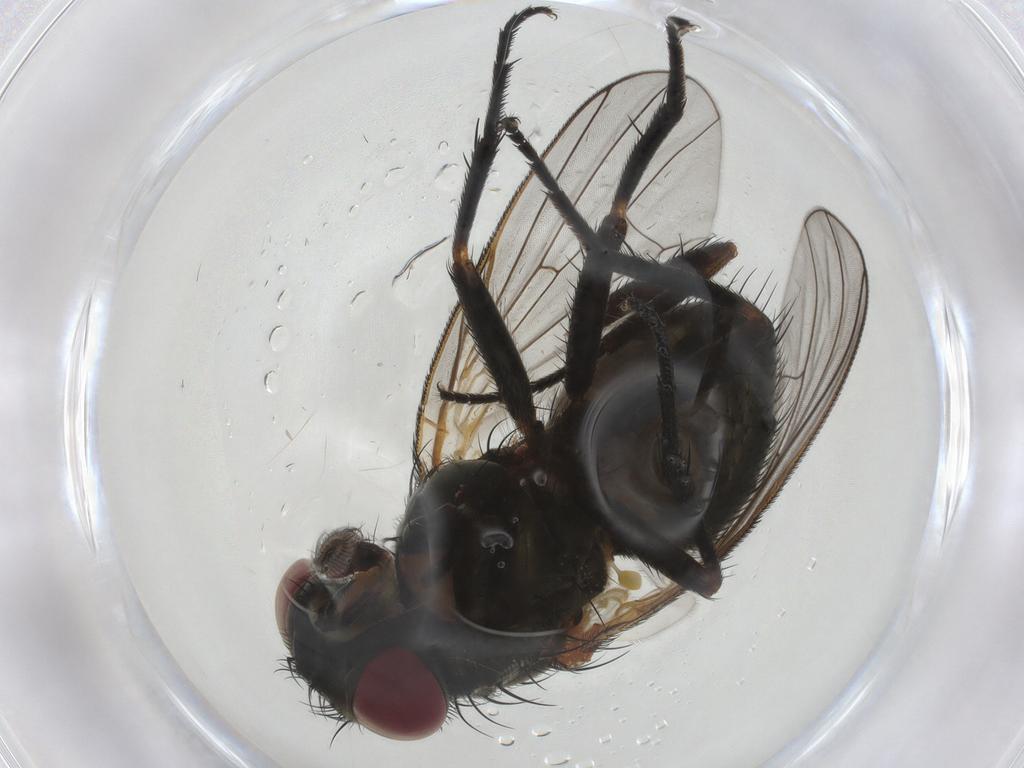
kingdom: Animalia
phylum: Arthropoda
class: Insecta
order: Diptera
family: Fannia
